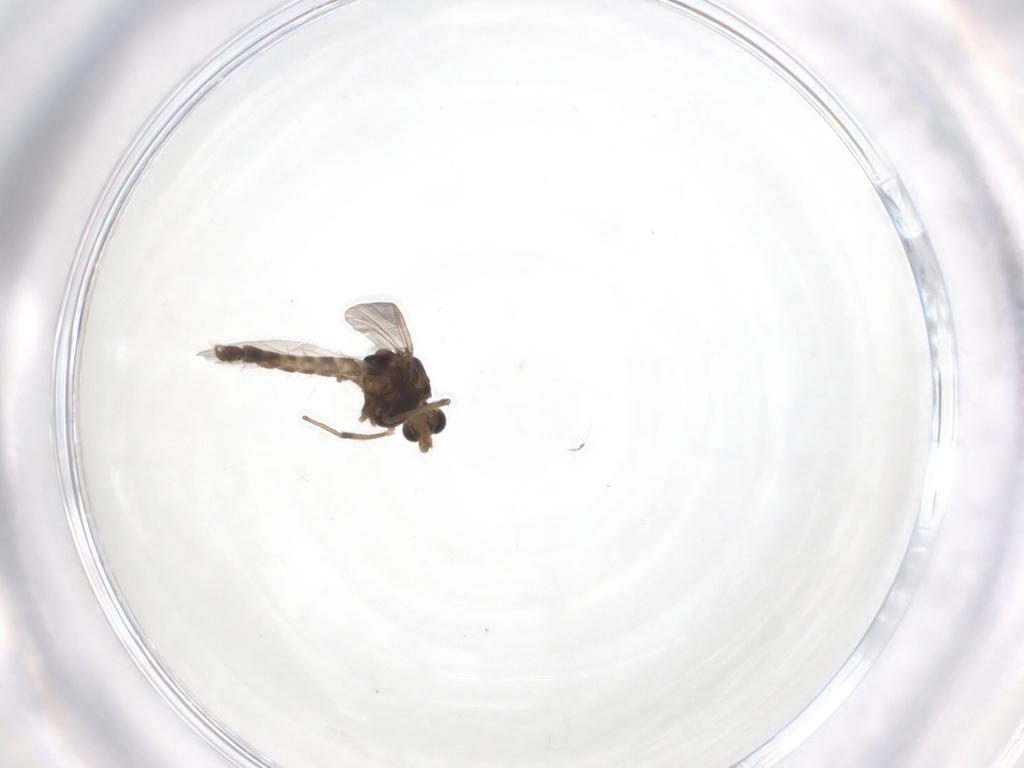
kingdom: Animalia
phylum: Arthropoda
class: Insecta
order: Diptera
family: Chironomidae
